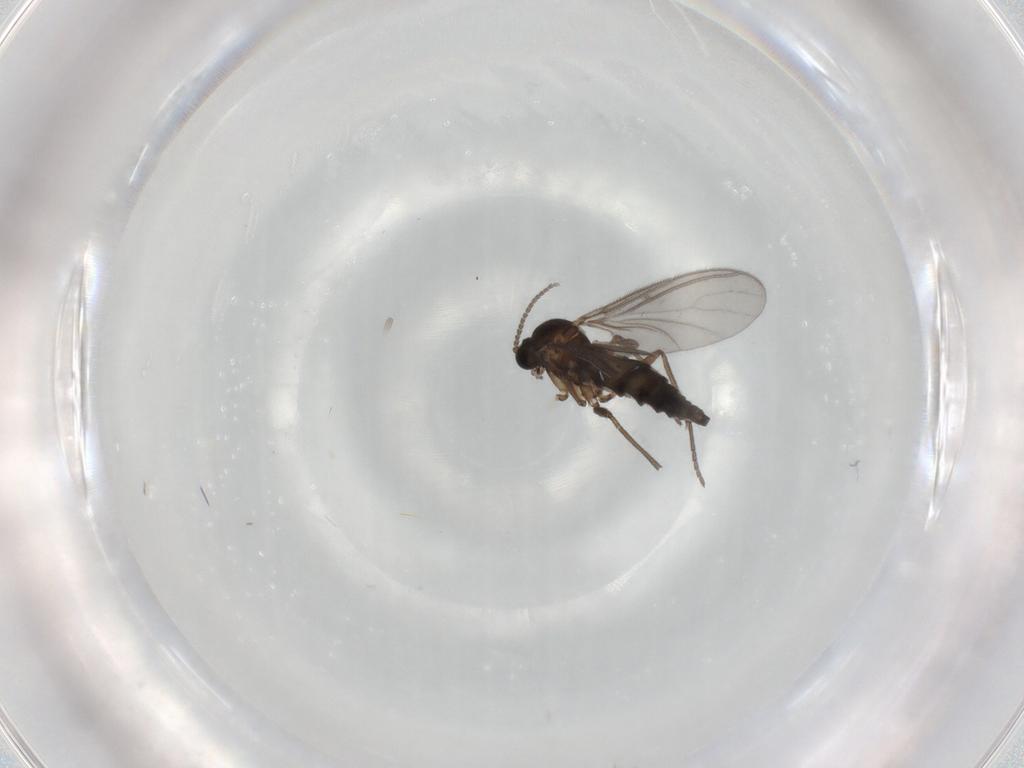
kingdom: Animalia
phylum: Arthropoda
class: Insecta
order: Diptera
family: Sciaridae
